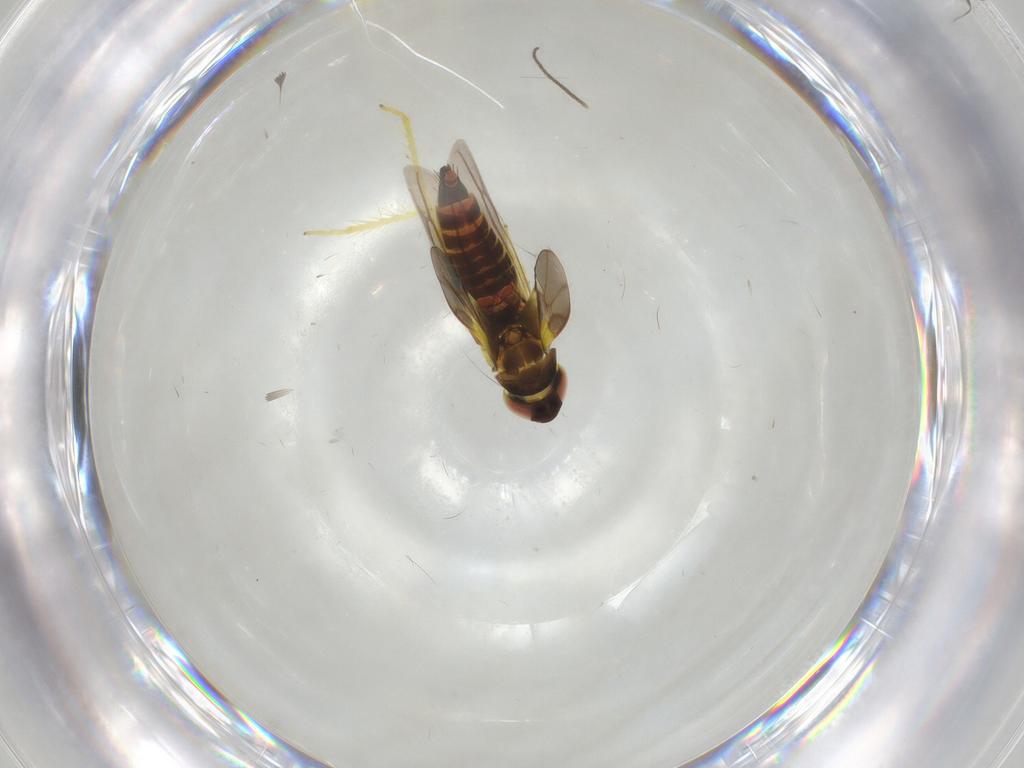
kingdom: Animalia
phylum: Arthropoda
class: Insecta
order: Hemiptera
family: Cicadellidae
